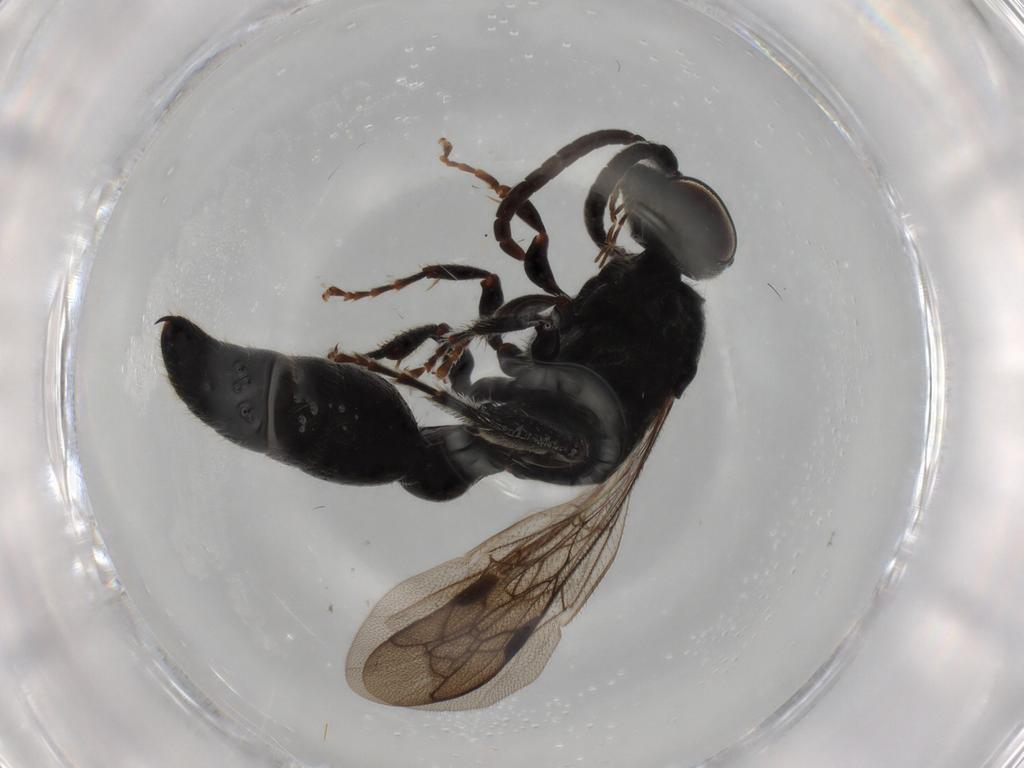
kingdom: Animalia
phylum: Arthropoda
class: Insecta
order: Hymenoptera
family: Tiphiidae
